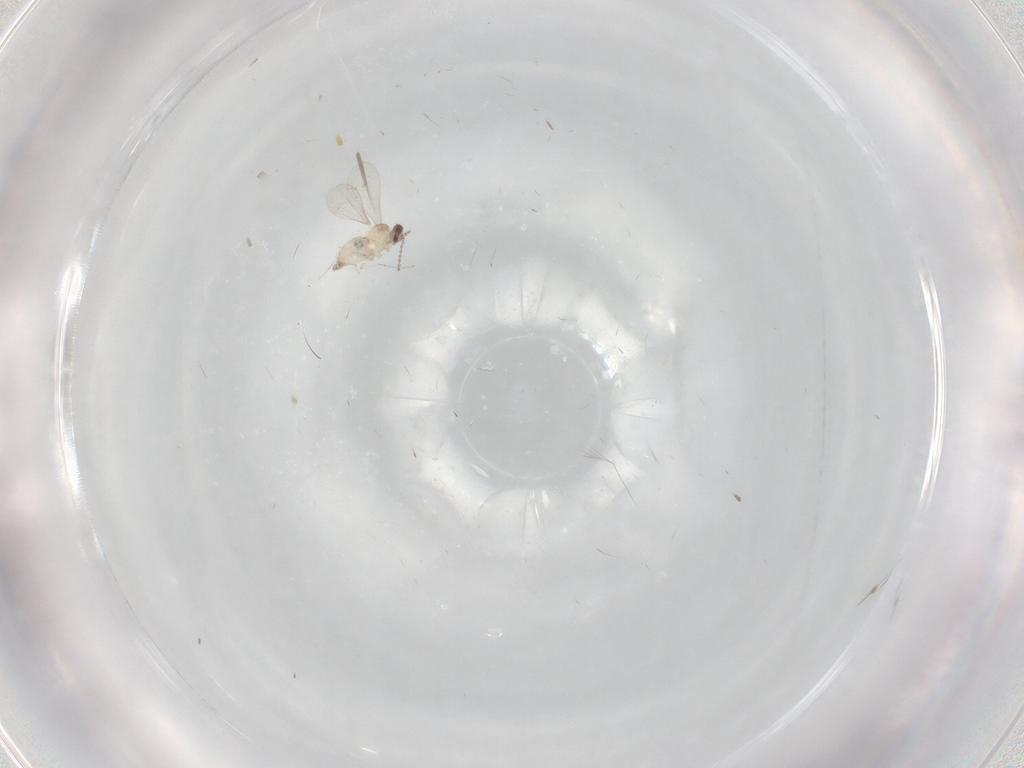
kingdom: Animalia
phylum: Arthropoda
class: Insecta
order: Diptera
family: Cecidomyiidae
